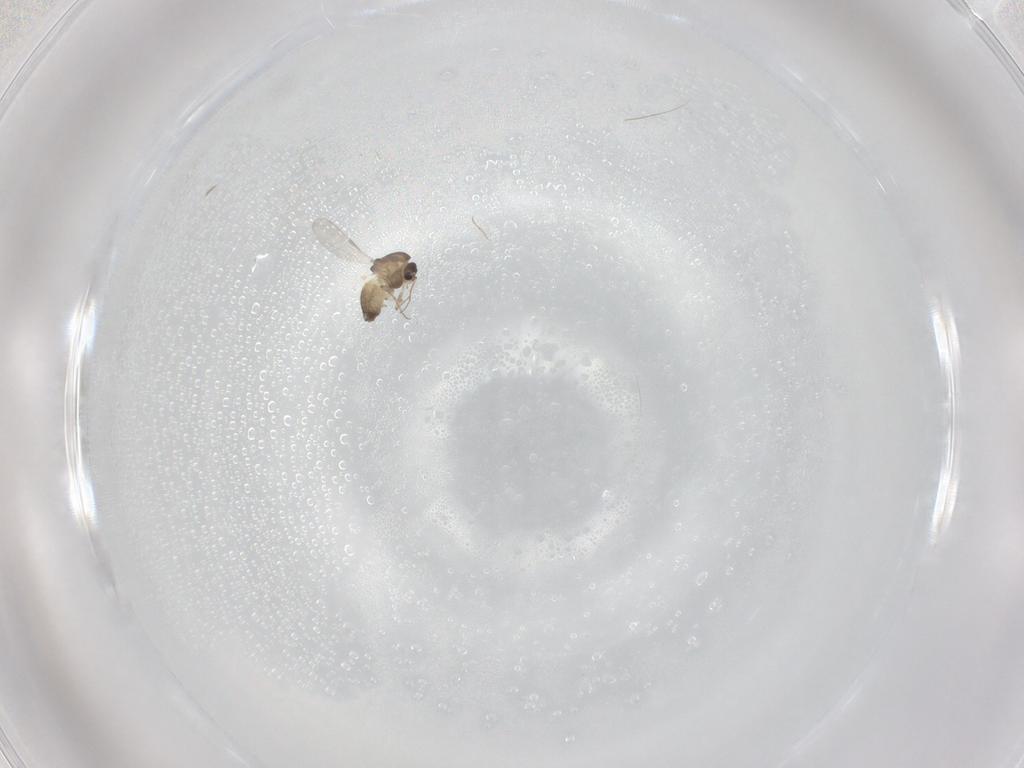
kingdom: Animalia
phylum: Arthropoda
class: Insecta
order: Diptera
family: Chironomidae
